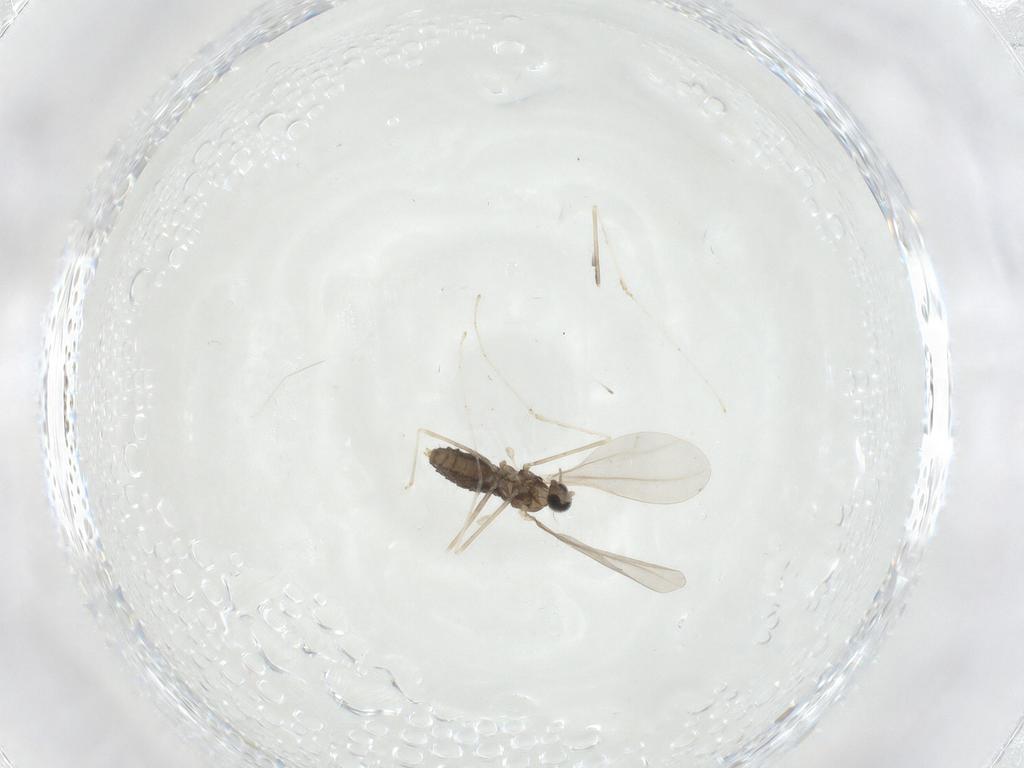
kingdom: Animalia
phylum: Arthropoda
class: Insecta
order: Diptera
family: Cecidomyiidae
